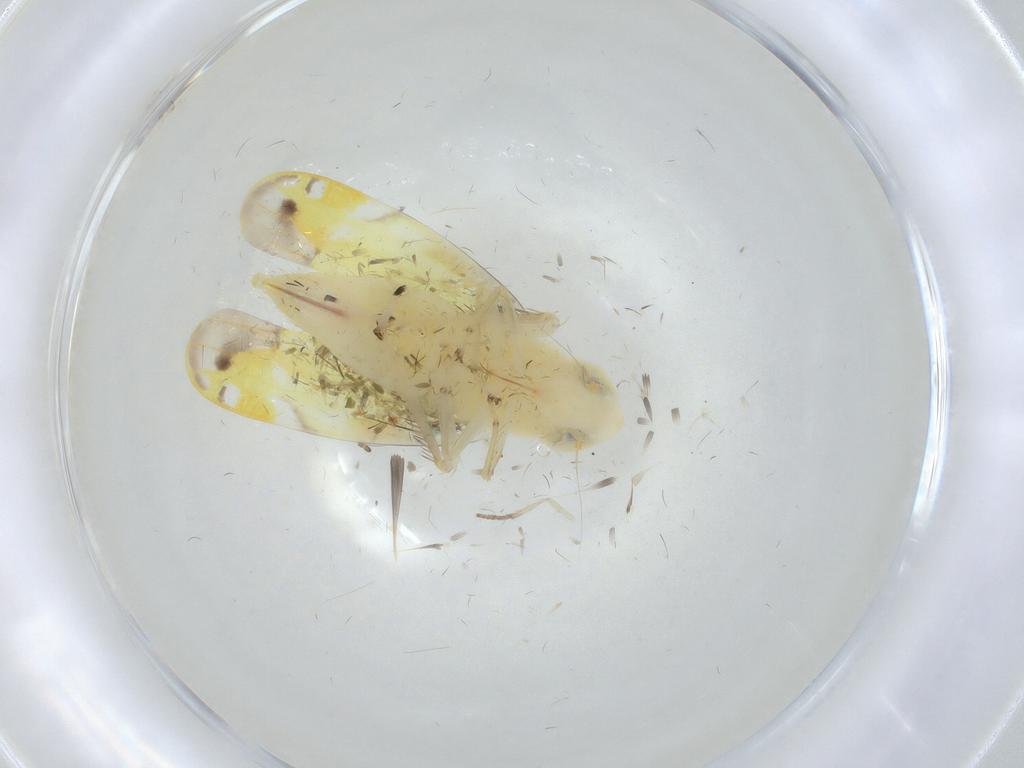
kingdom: Animalia
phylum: Arthropoda
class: Insecta
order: Hemiptera
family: Cicadellidae
